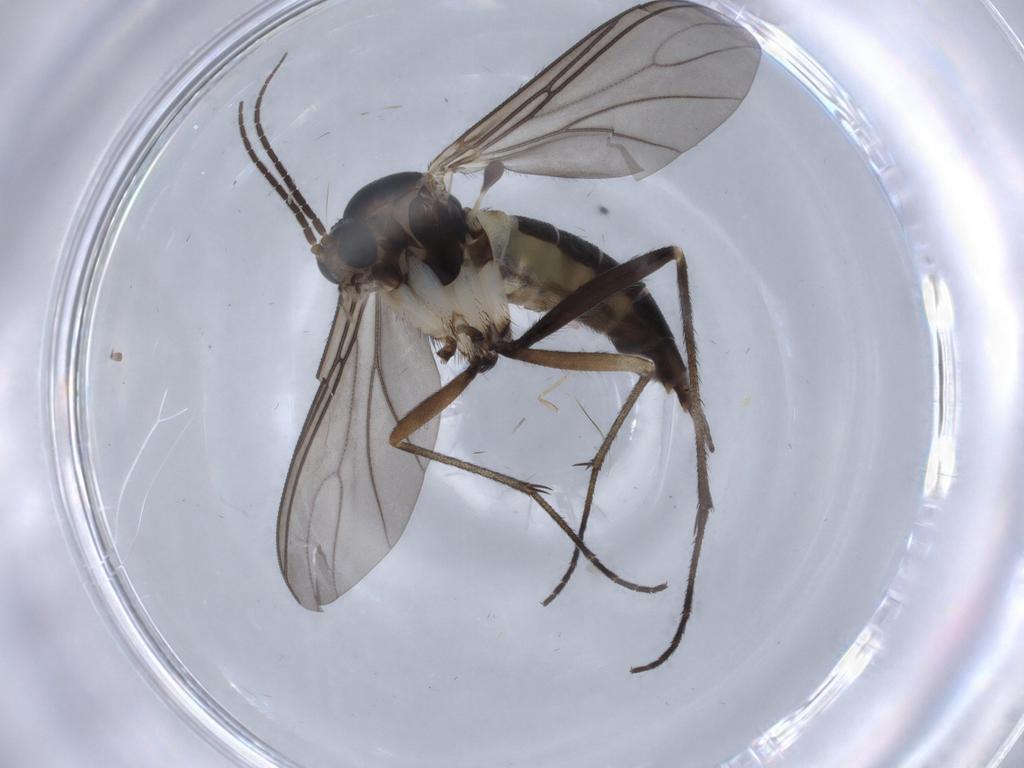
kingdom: Animalia
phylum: Arthropoda
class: Insecta
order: Diptera
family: Sciaridae
